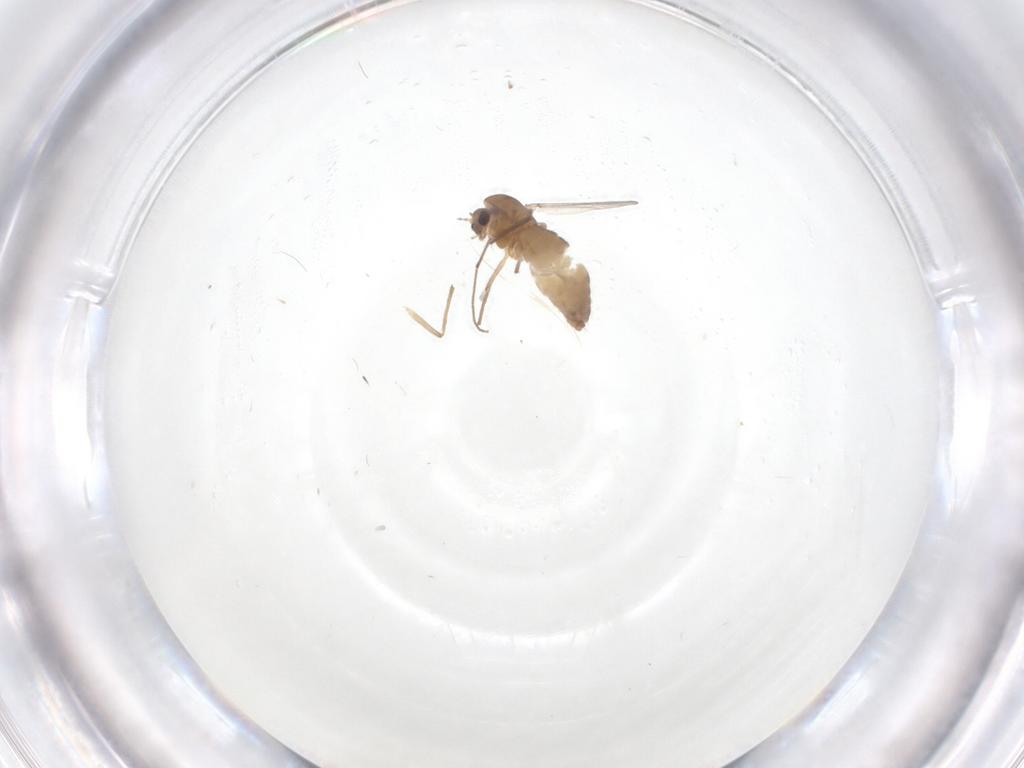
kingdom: Animalia
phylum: Arthropoda
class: Insecta
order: Diptera
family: Chironomidae
